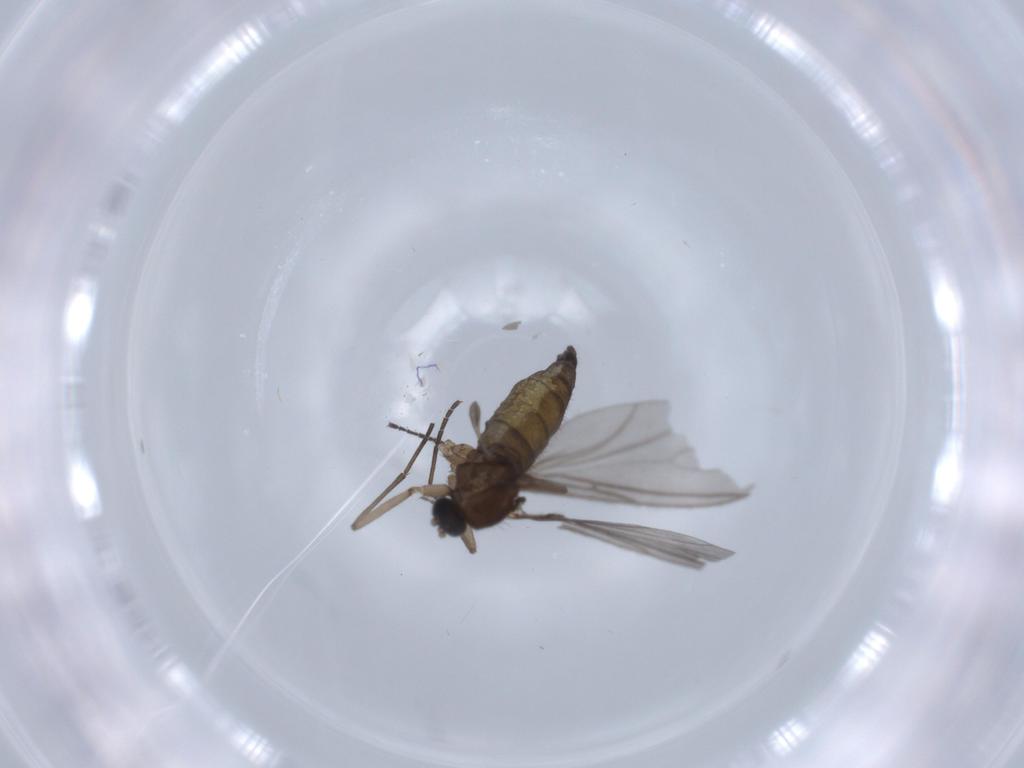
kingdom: Animalia
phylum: Arthropoda
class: Insecta
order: Diptera
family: Sciaridae
